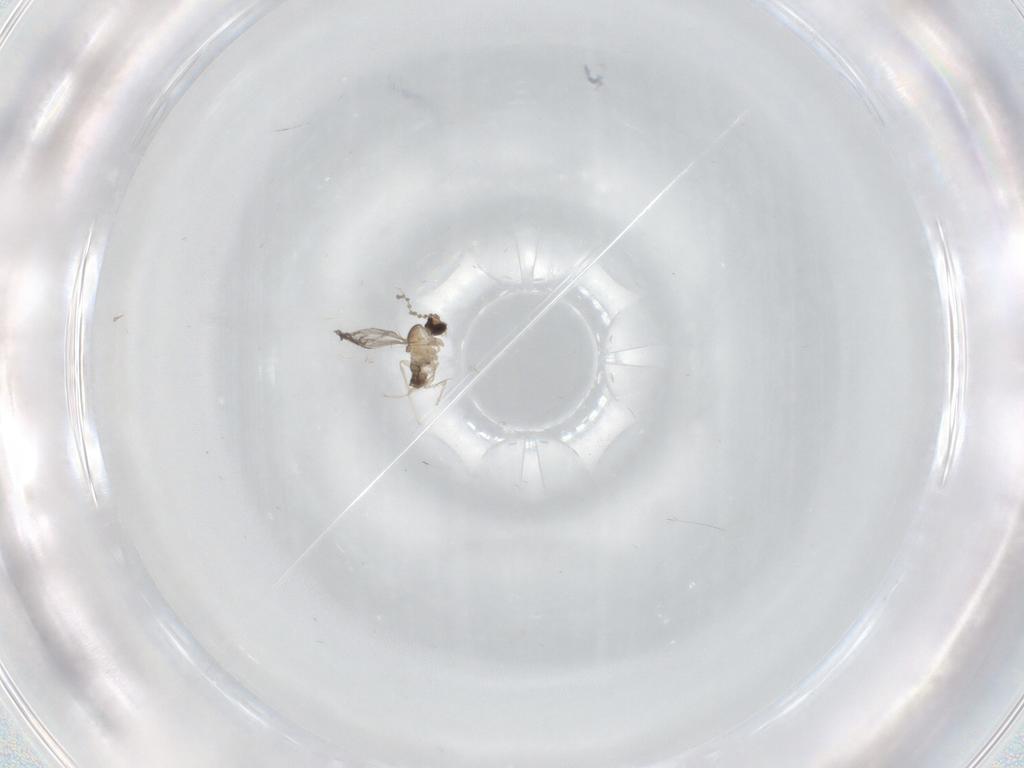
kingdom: Animalia
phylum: Arthropoda
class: Insecta
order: Diptera
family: Cecidomyiidae
